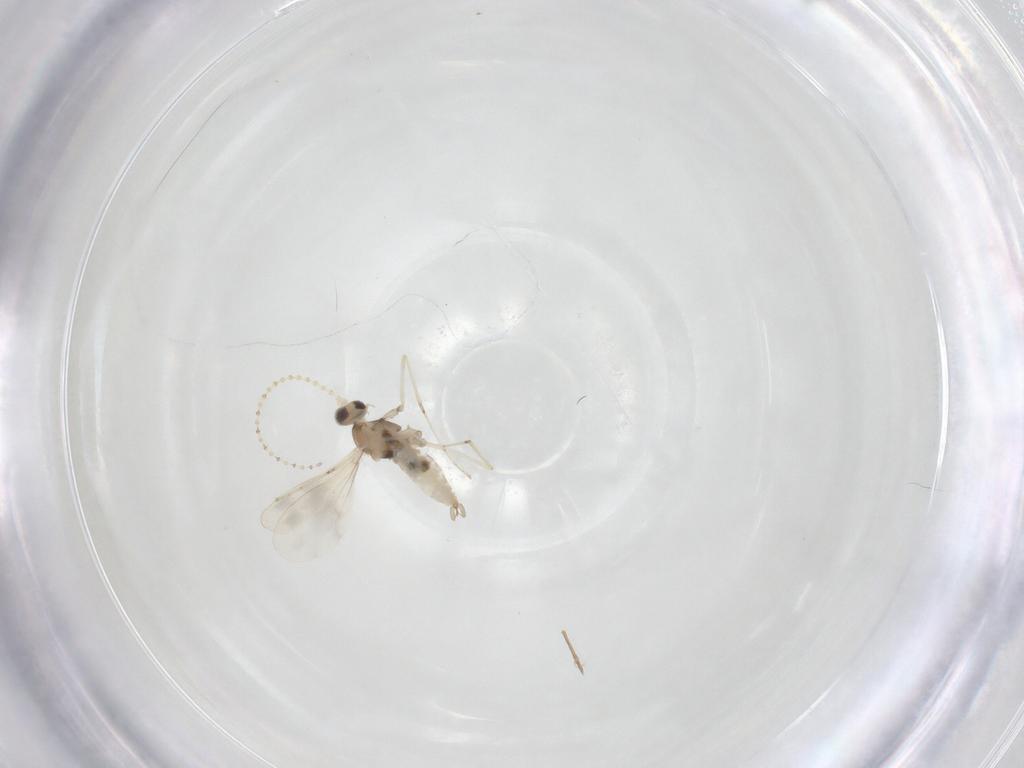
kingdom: Animalia
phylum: Arthropoda
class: Insecta
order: Diptera
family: Cecidomyiidae
